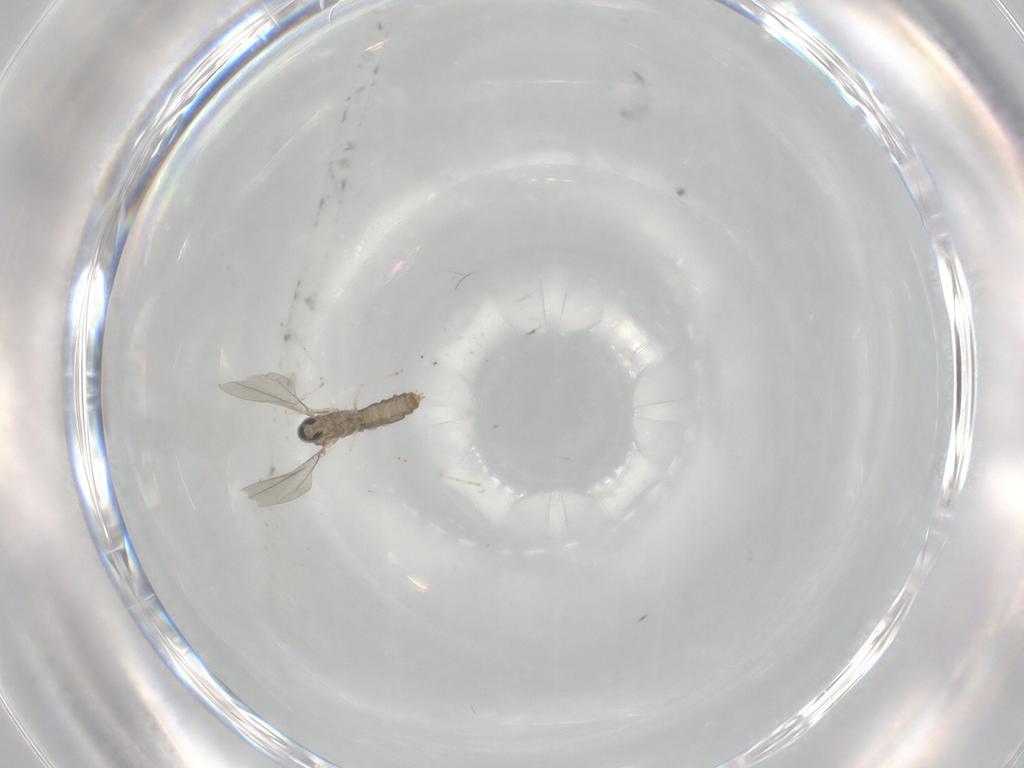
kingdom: Animalia
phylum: Arthropoda
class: Insecta
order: Diptera
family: Cecidomyiidae
